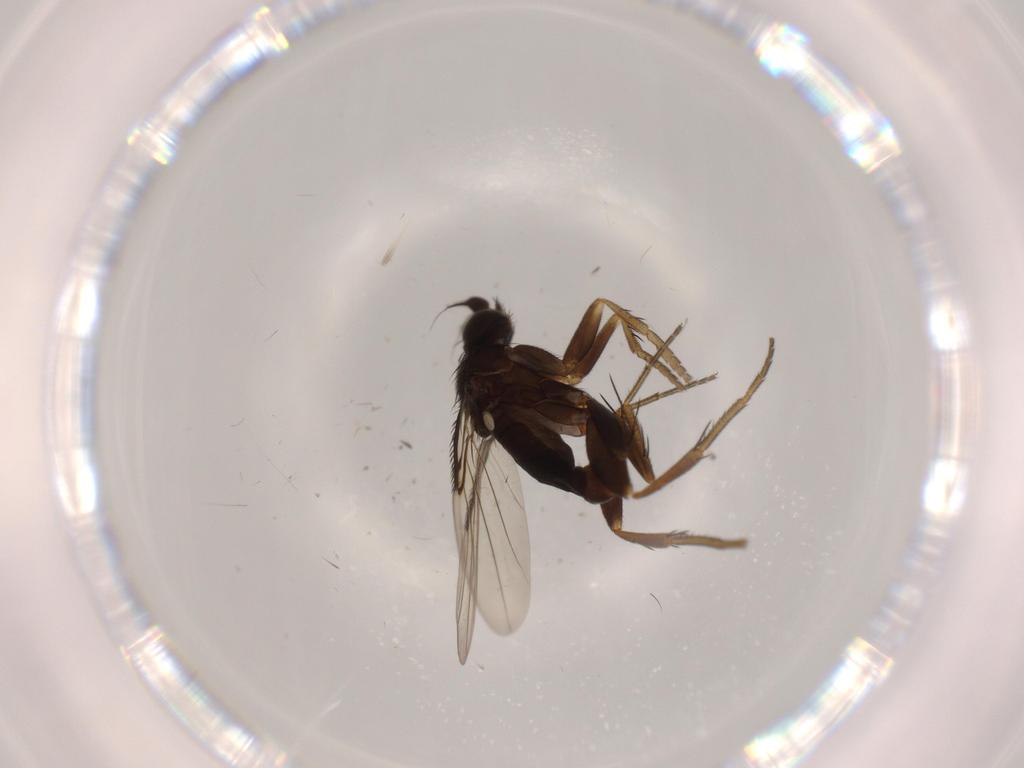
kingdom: Animalia
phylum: Arthropoda
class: Insecta
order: Diptera
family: Phoridae
